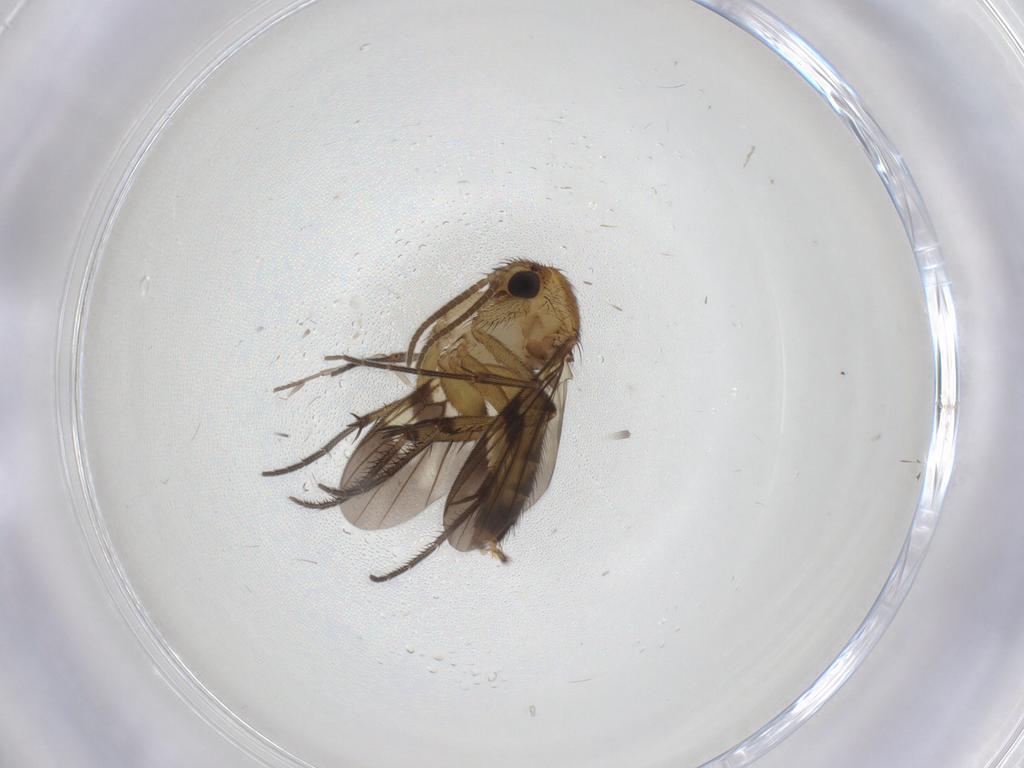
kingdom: Animalia
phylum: Arthropoda
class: Insecta
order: Diptera
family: Psychodidae
